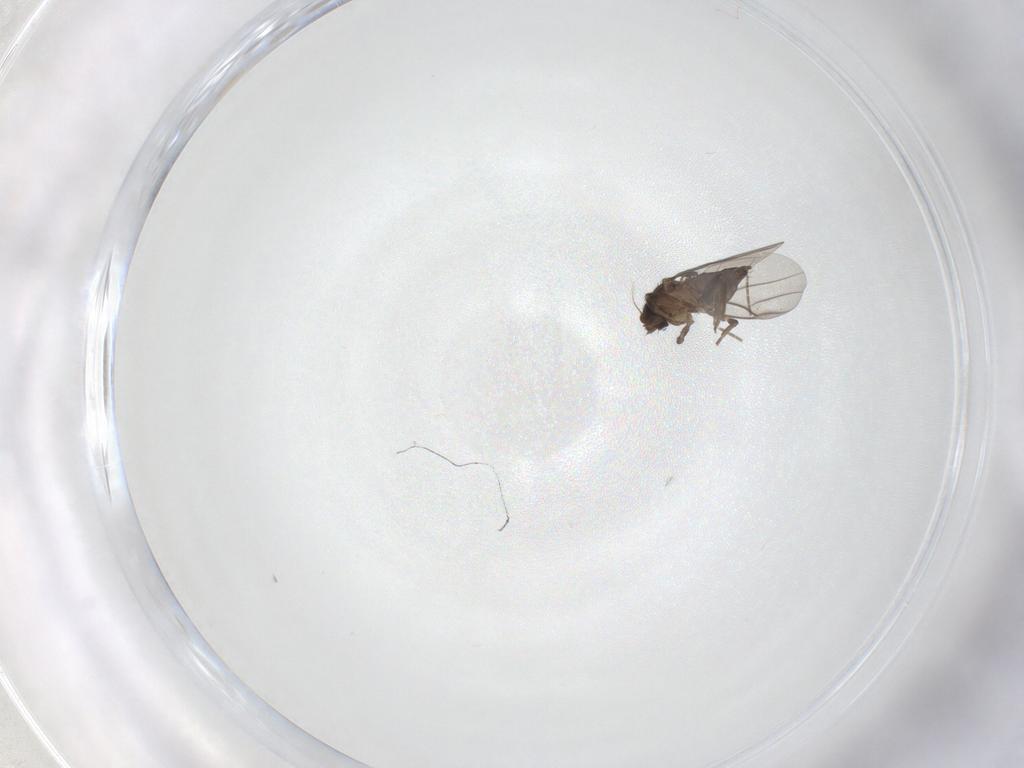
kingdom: Animalia
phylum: Arthropoda
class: Insecta
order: Diptera
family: Phoridae
